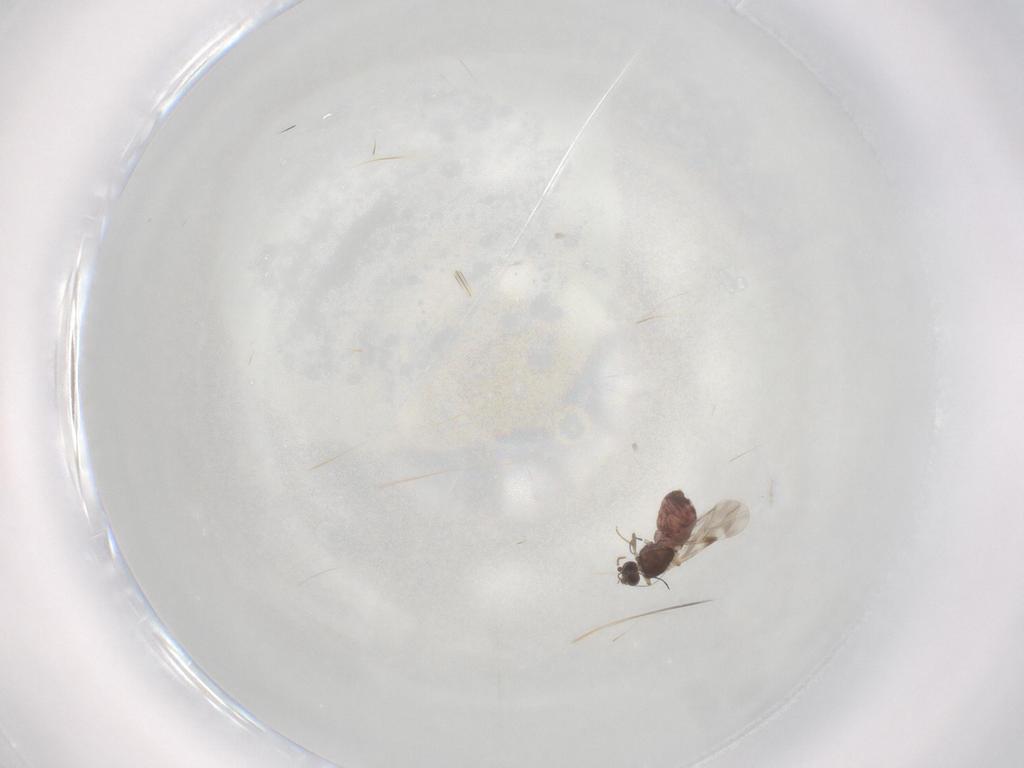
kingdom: Animalia
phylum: Arthropoda
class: Insecta
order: Diptera
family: Ceratopogonidae
